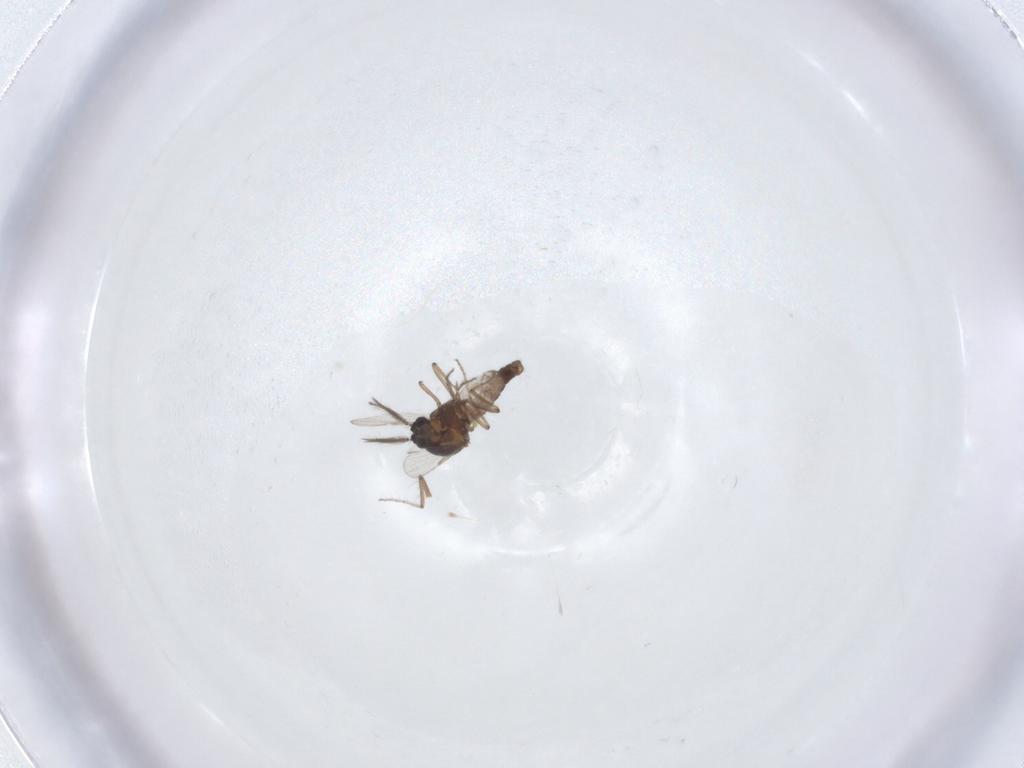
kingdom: Animalia
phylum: Arthropoda
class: Insecta
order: Diptera
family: Ceratopogonidae
